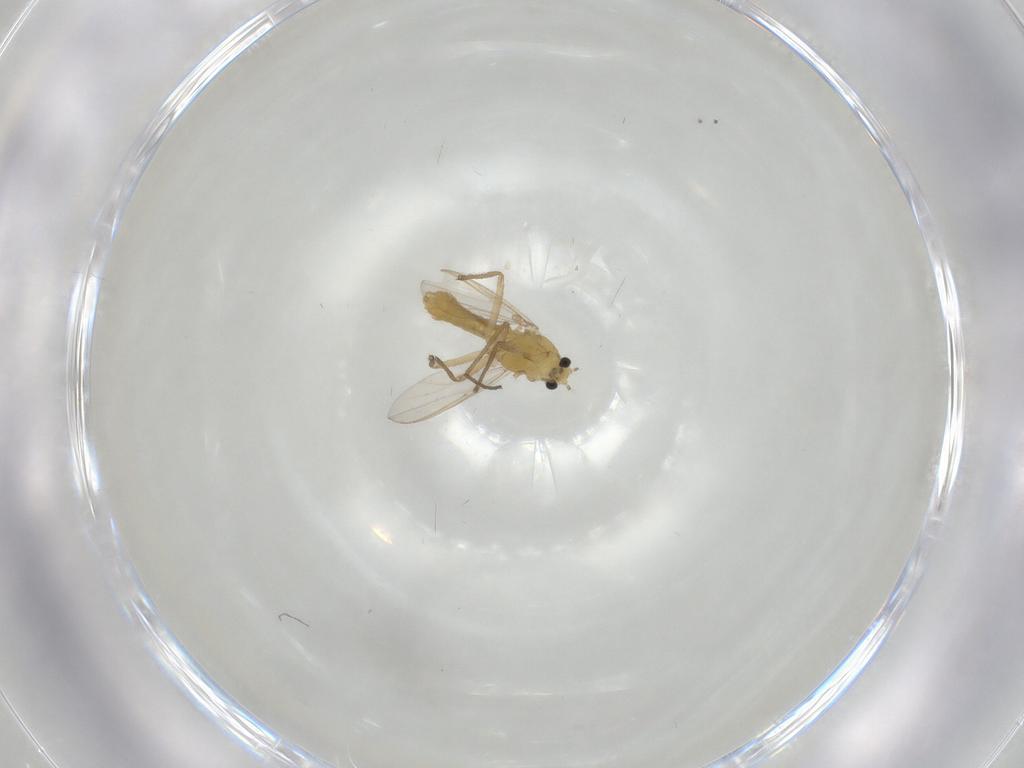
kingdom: Animalia
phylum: Arthropoda
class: Insecta
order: Diptera
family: Chironomidae
